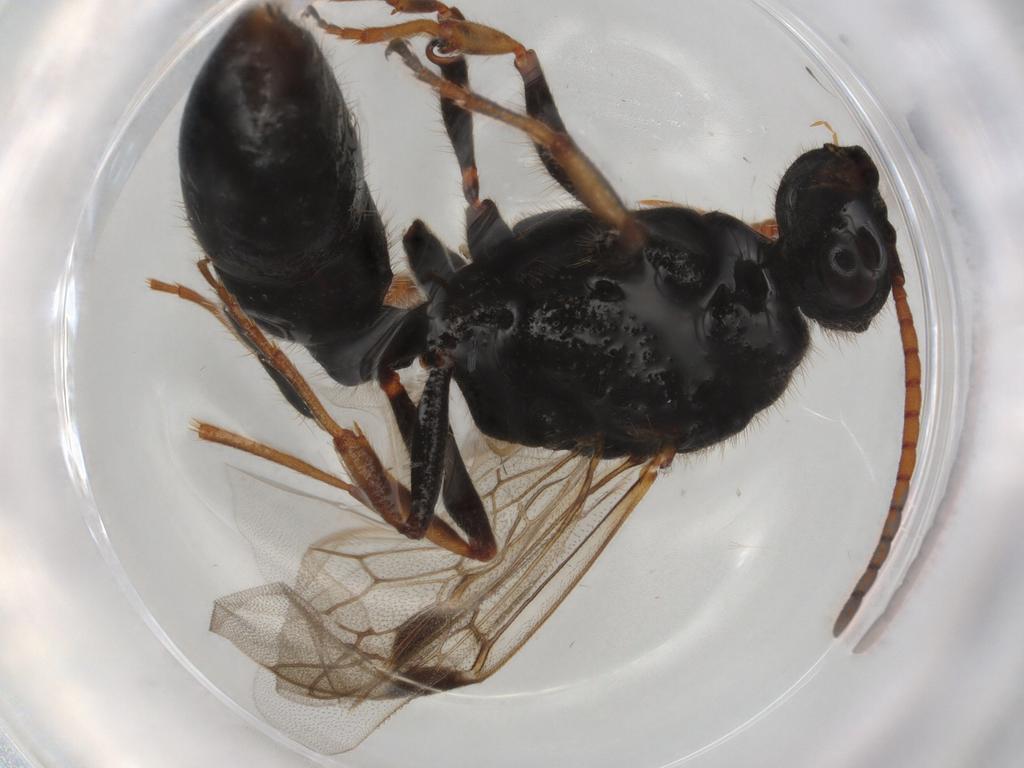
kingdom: Animalia
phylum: Arthropoda
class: Insecta
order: Hymenoptera
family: Formicidae
